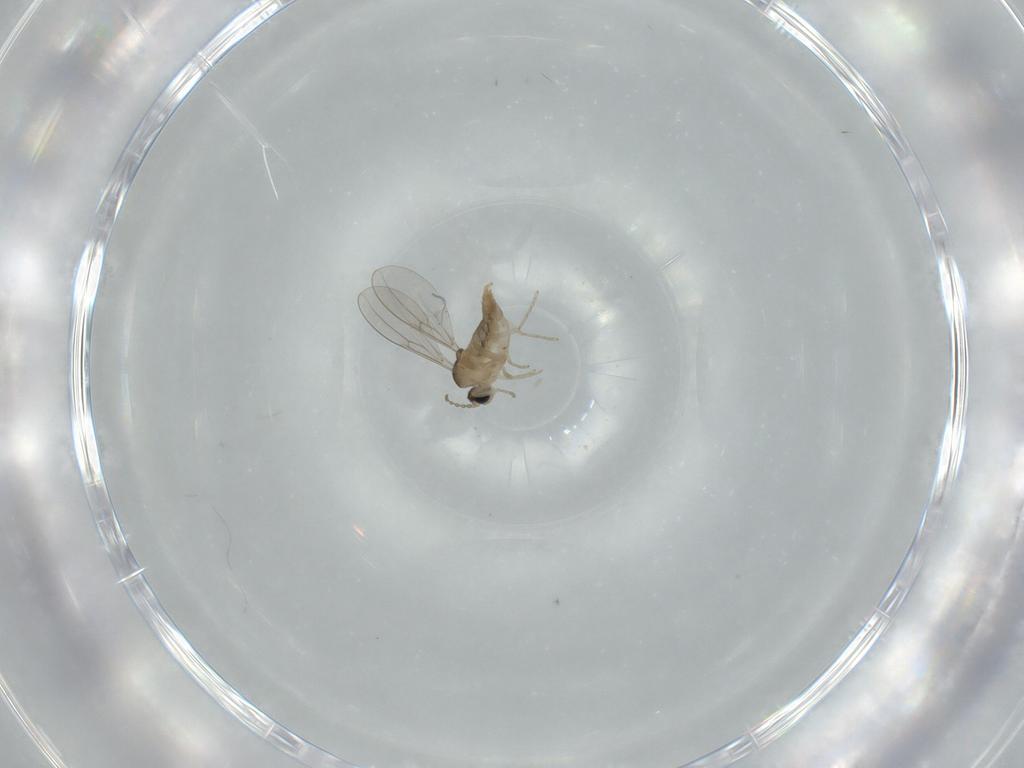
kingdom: Animalia
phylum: Arthropoda
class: Insecta
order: Diptera
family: Cecidomyiidae
